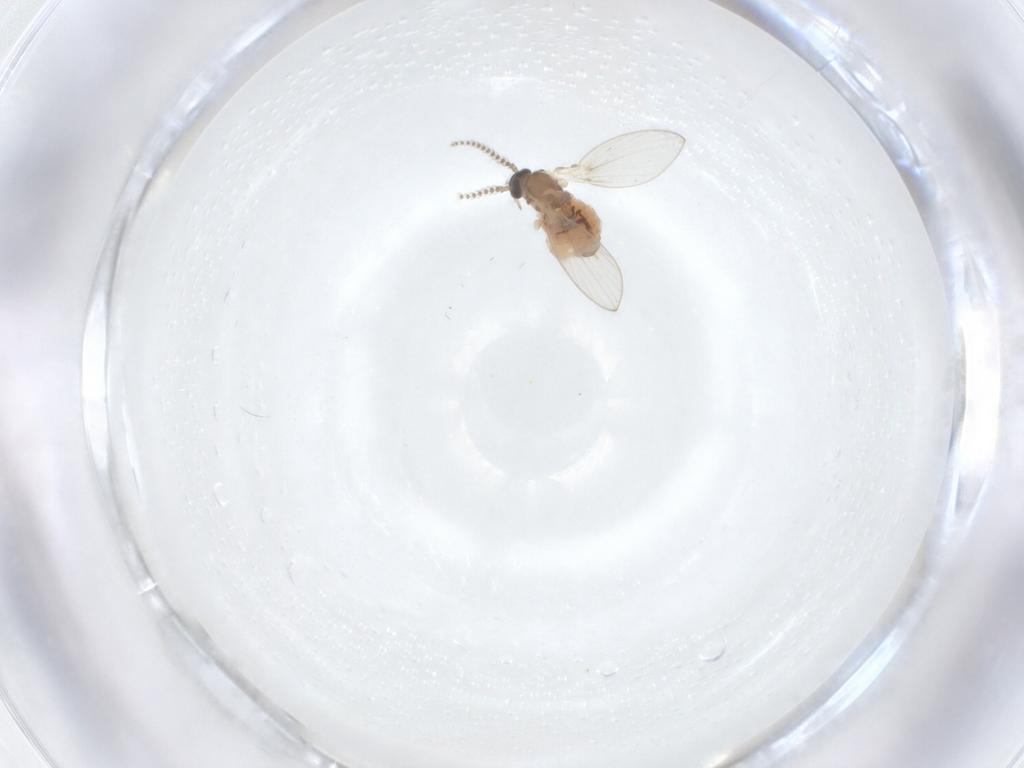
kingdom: Animalia
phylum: Arthropoda
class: Insecta
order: Diptera
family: Psychodidae
